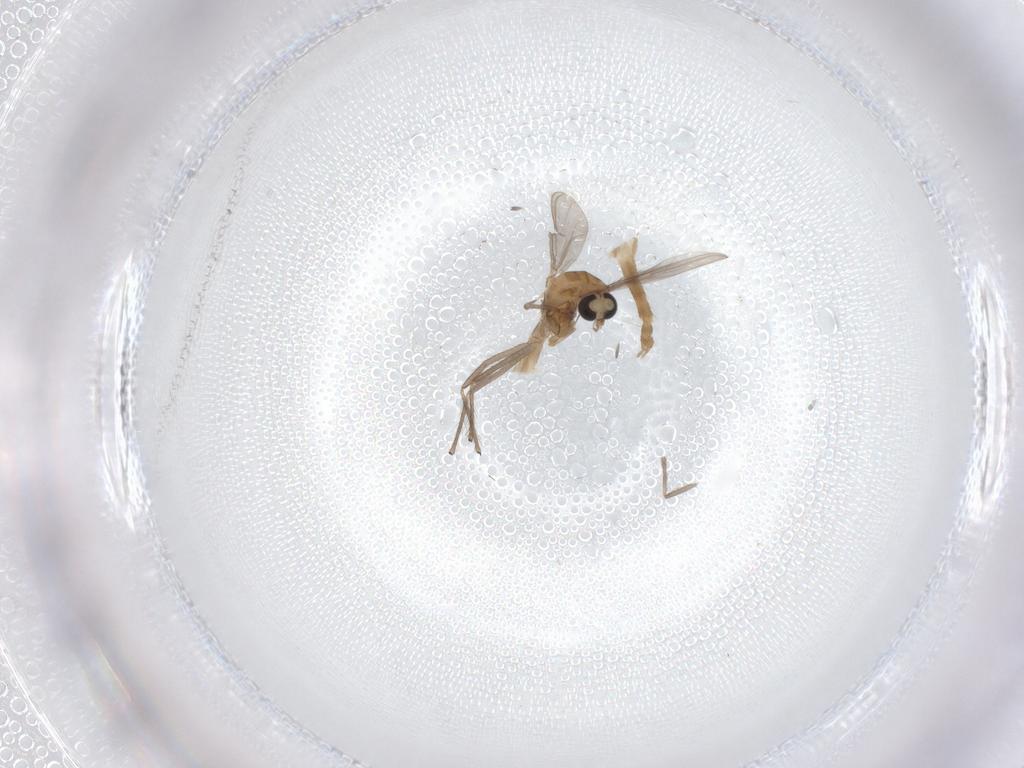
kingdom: Animalia
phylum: Arthropoda
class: Insecta
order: Diptera
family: Chironomidae
